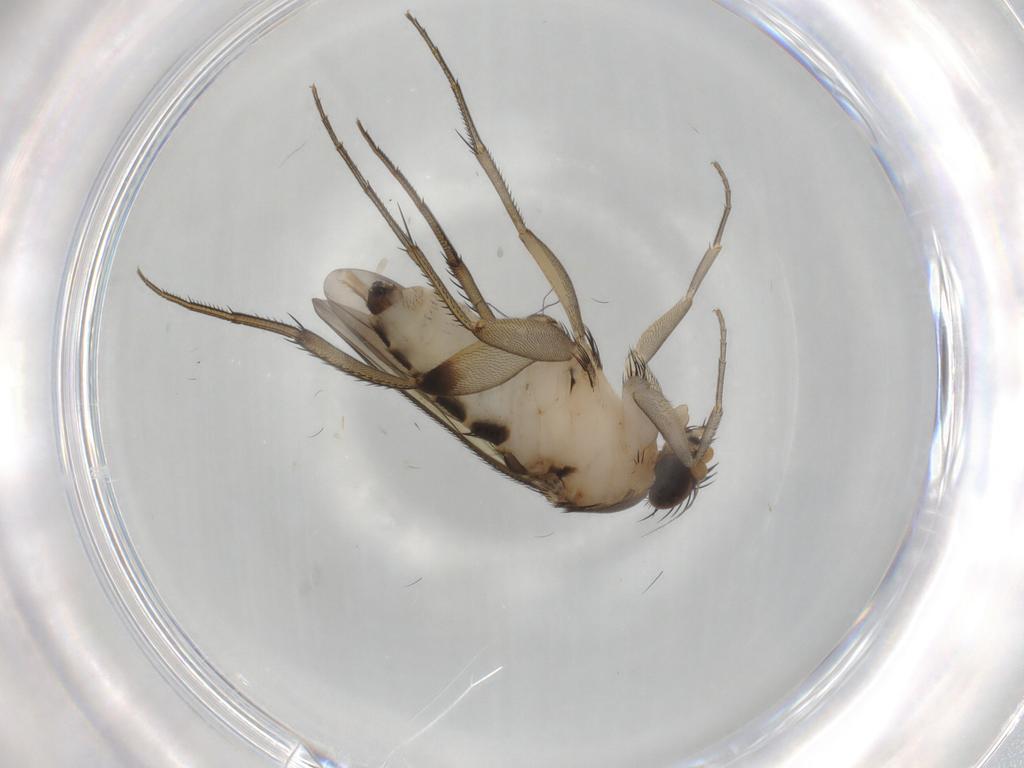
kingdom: Animalia
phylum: Arthropoda
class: Insecta
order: Diptera
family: Phoridae
